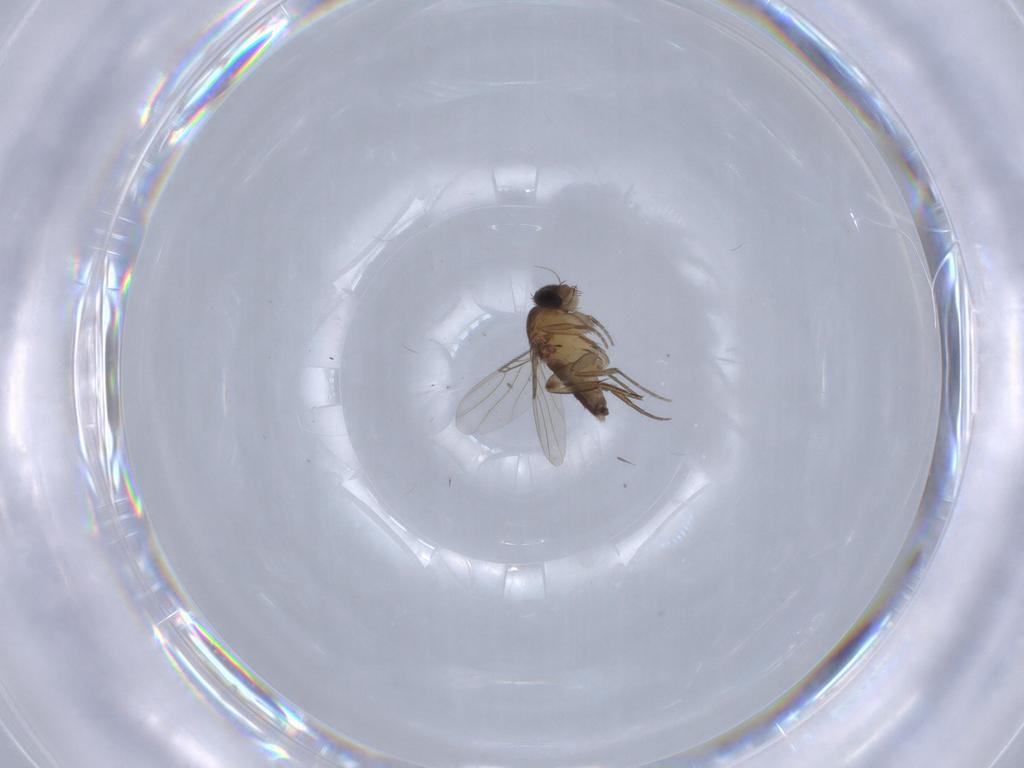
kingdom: Animalia
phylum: Arthropoda
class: Insecta
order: Diptera
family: Phoridae
